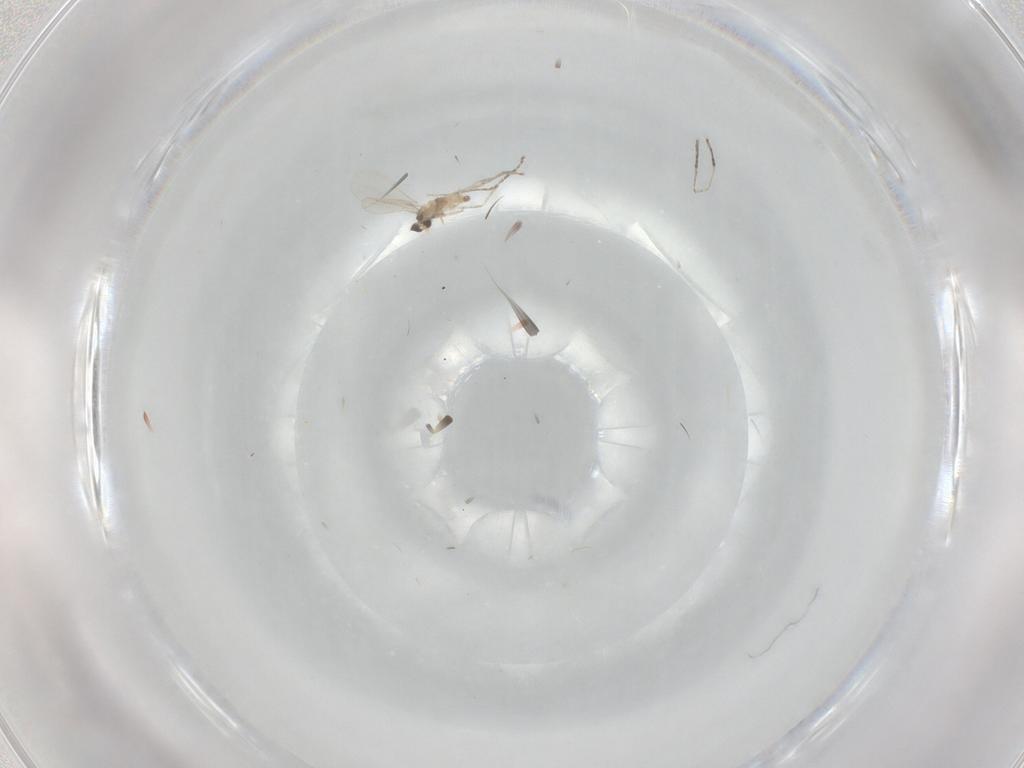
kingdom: Animalia
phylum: Arthropoda
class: Insecta
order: Diptera
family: Cecidomyiidae
